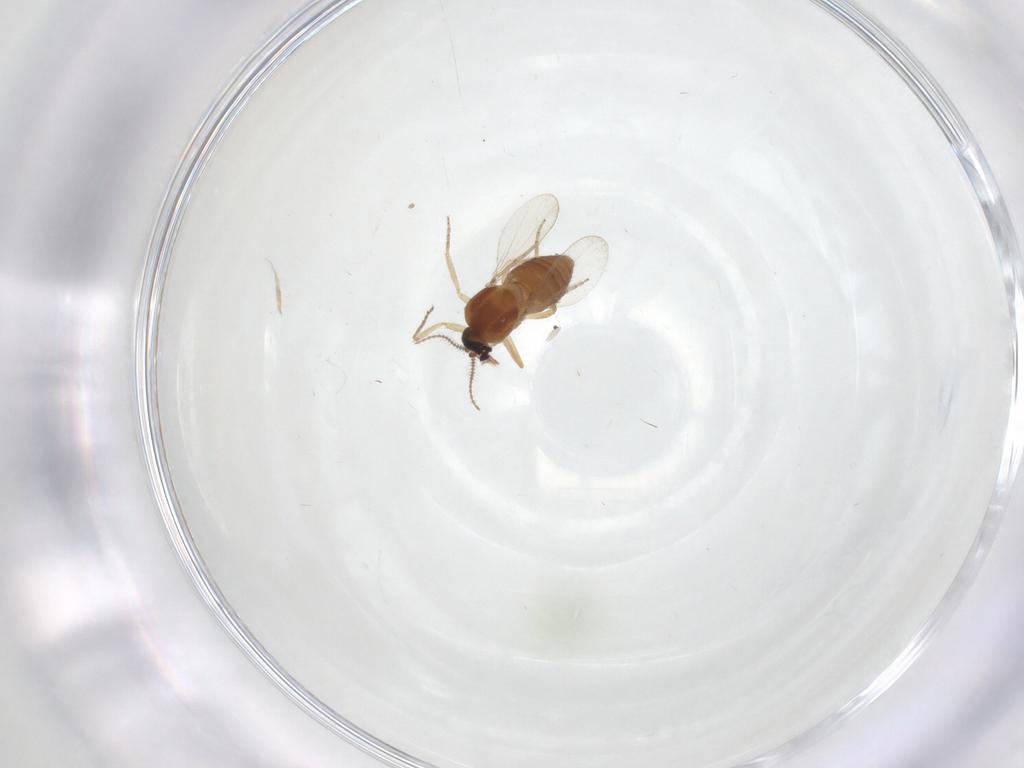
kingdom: Animalia
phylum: Arthropoda
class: Insecta
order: Diptera
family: Ceratopogonidae
